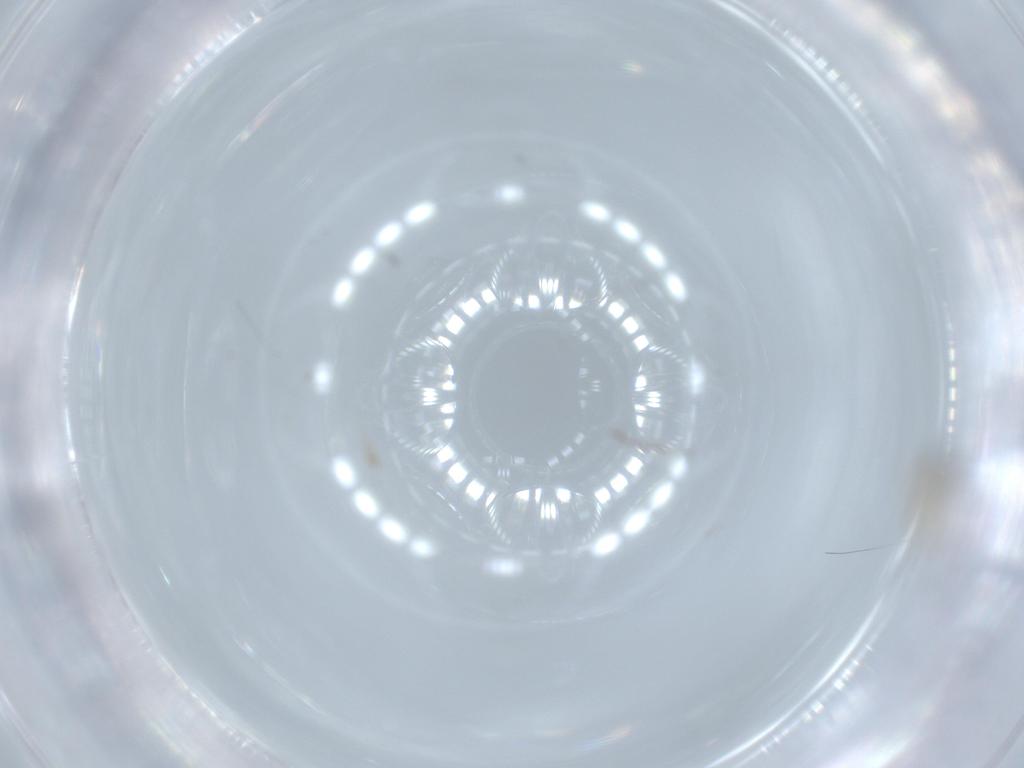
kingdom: Animalia
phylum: Arthropoda
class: Insecta
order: Psocodea
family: Epipsocidae
